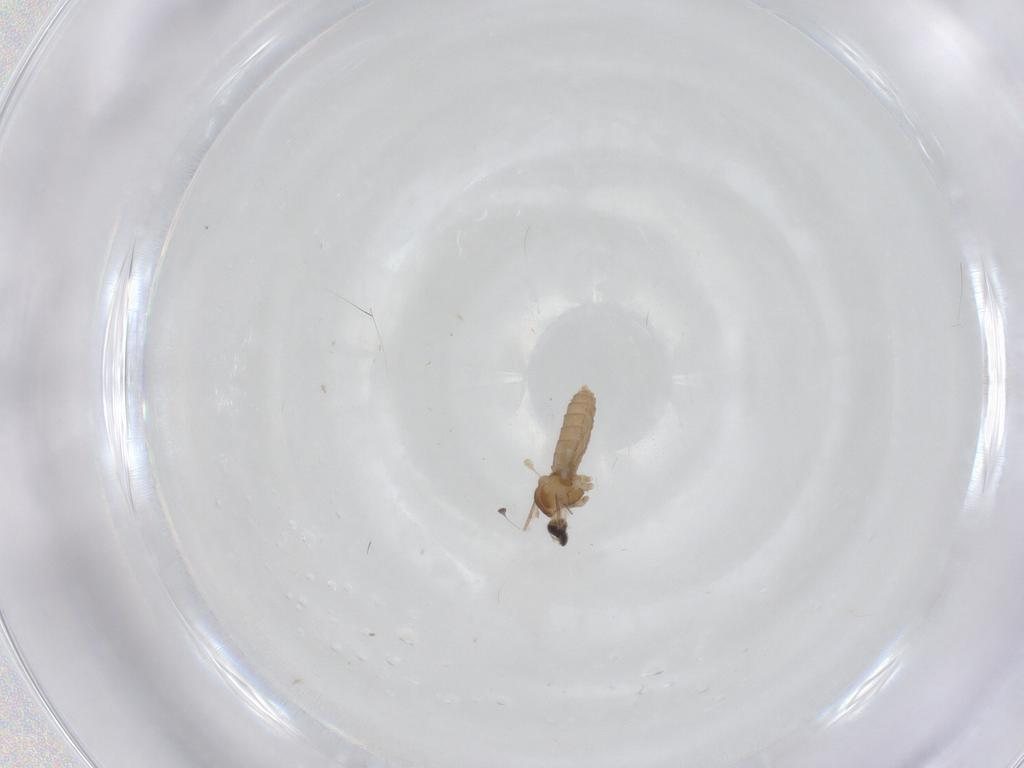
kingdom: Animalia
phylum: Arthropoda
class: Insecta
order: Diptera
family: Cecidomyiidae
